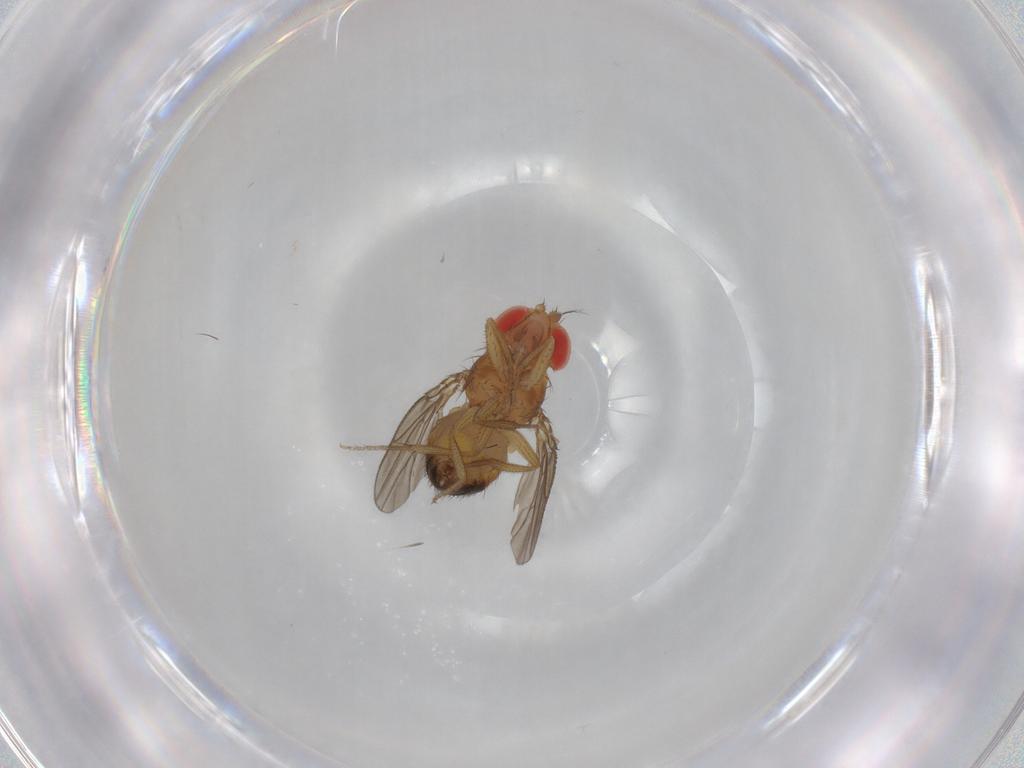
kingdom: Animalia
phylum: Arthropoda
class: Insecta
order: Diptera
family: Drosophilidae
